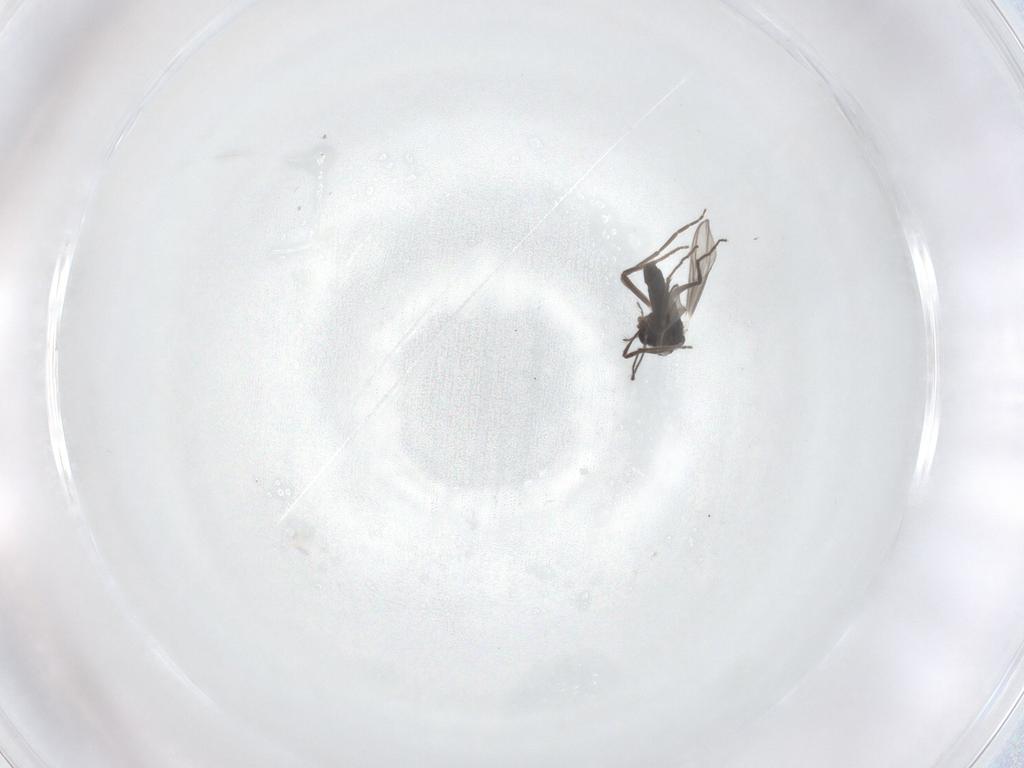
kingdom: Animalia
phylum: Arthropoda
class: Insecta
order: Diptera
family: Chironomidae
